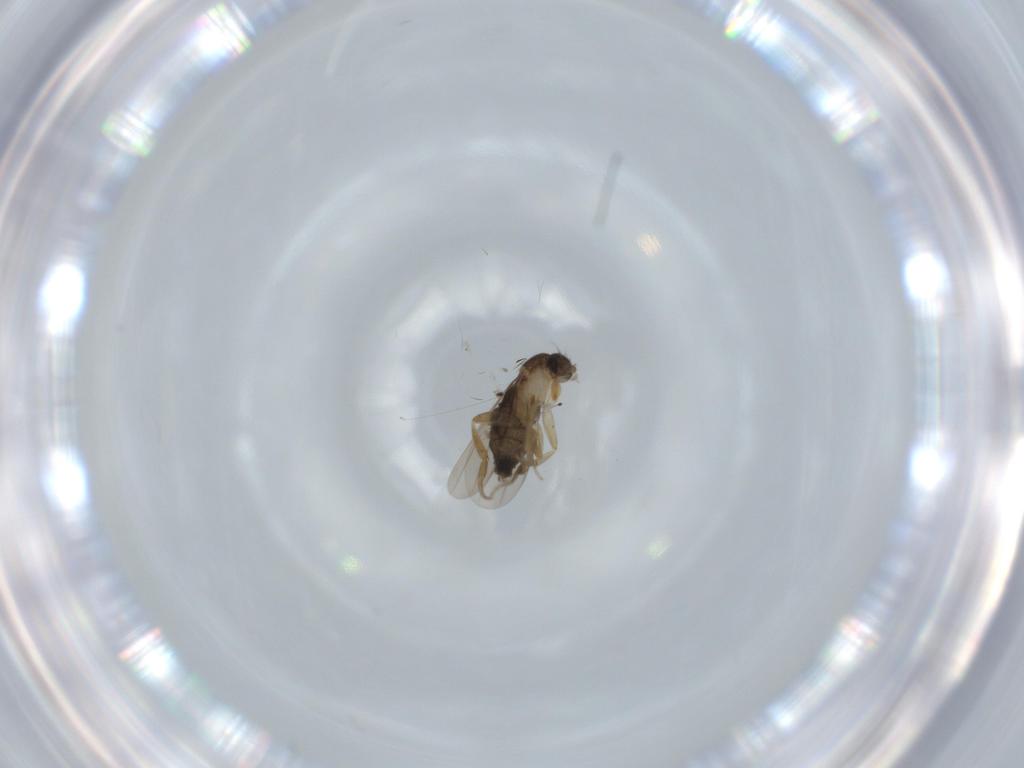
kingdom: Animalia
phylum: Arthropoda
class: Insecta
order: Diptera
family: Phoridae
